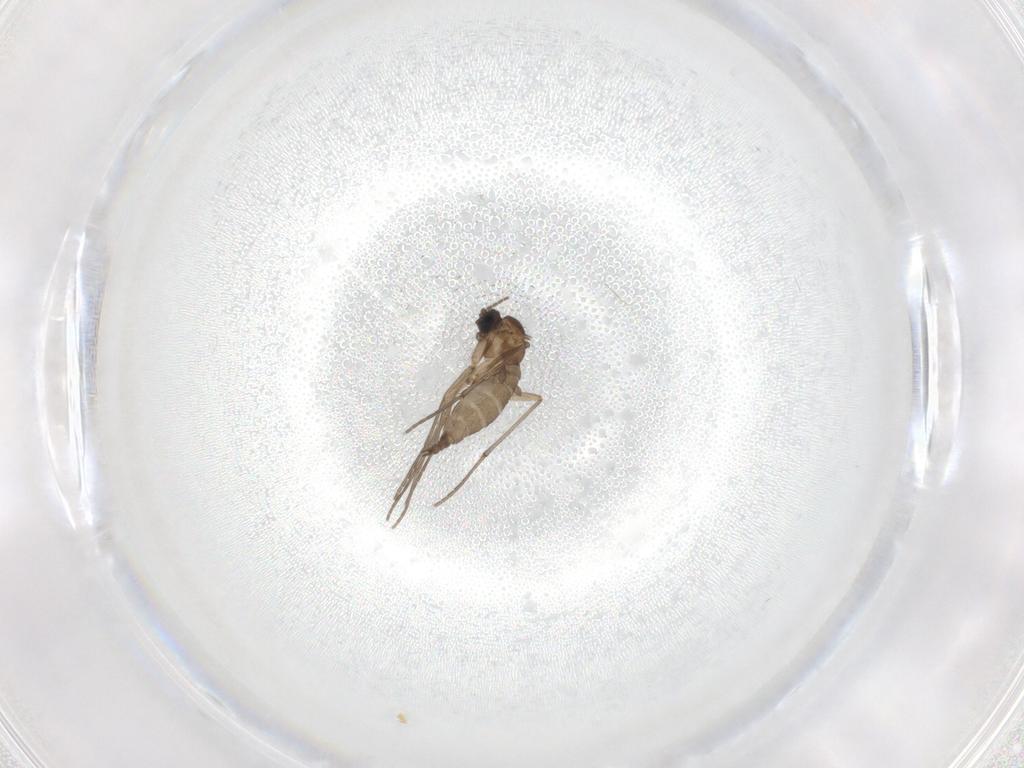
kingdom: Animalia
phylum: Arthropoda
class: Insecta
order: Diptera
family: Sciaridae
